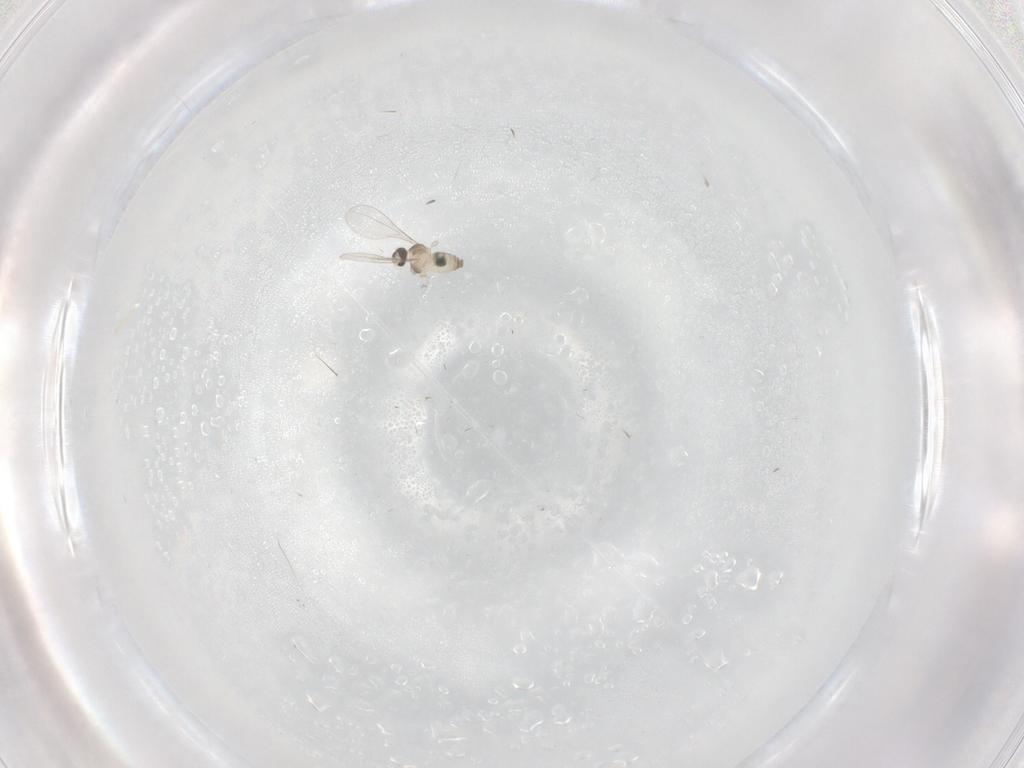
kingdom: Animalia
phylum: Arthropoda
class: Insecta
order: Diptera
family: Cecidomyiidae
